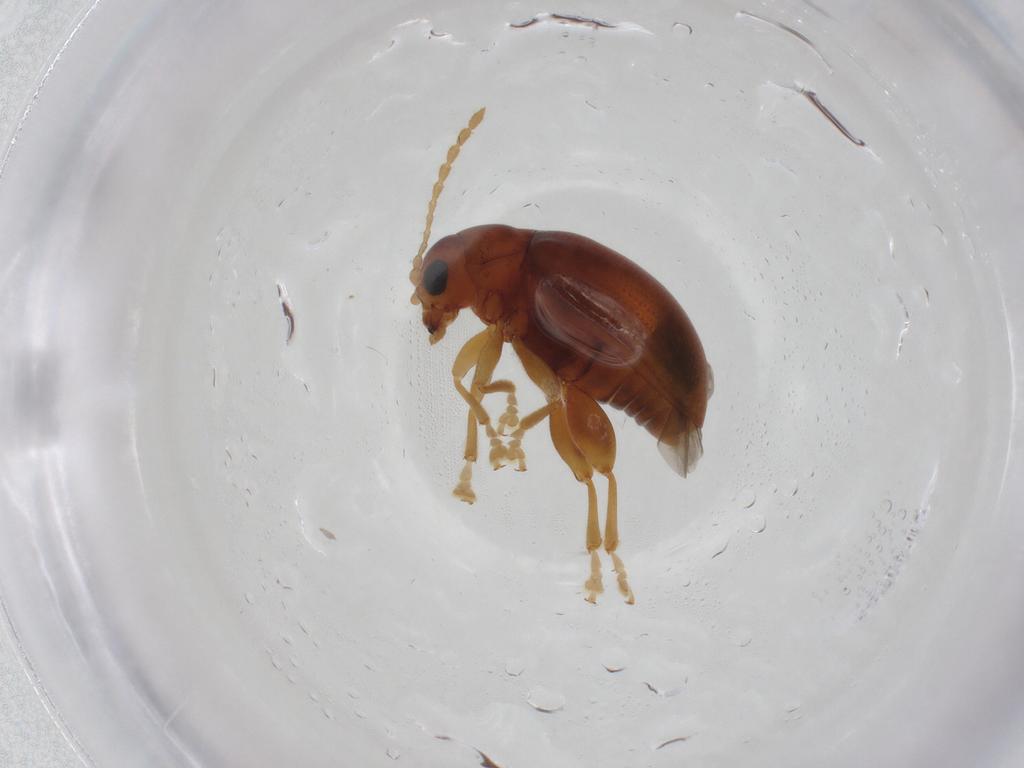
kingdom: Animalia
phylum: Arthropoda
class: Insecta
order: Coleoptera
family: Chrysomelidae
